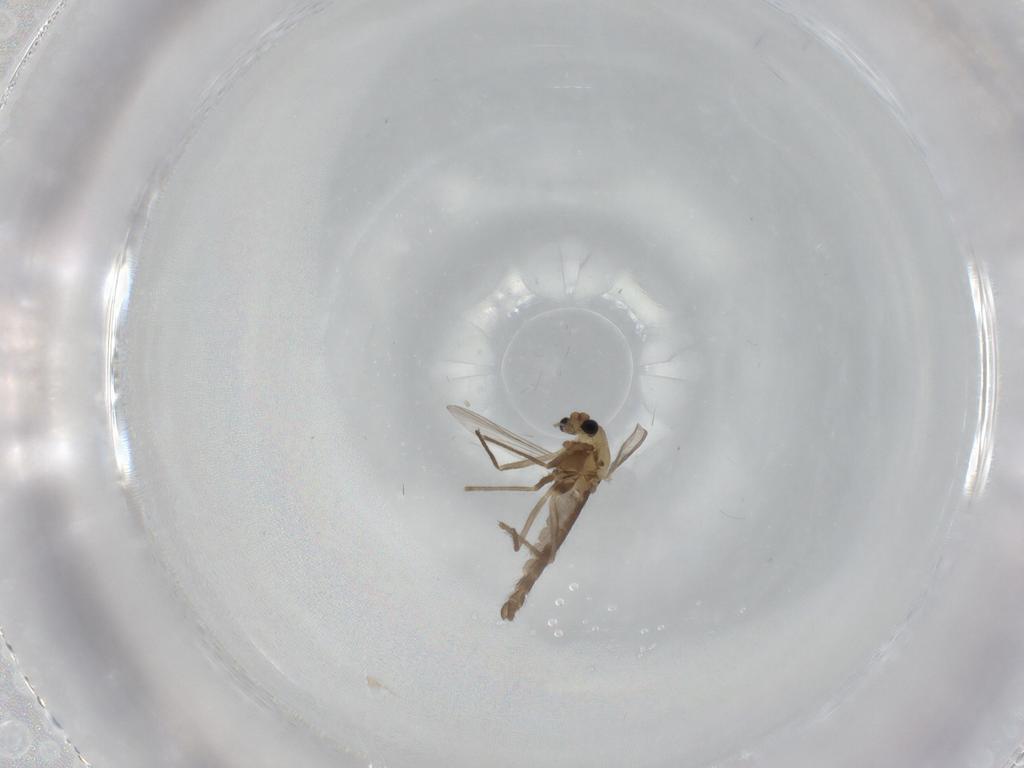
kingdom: Animalia
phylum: Arthropoda
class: Insecta
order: Diptera
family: Chironomidae
